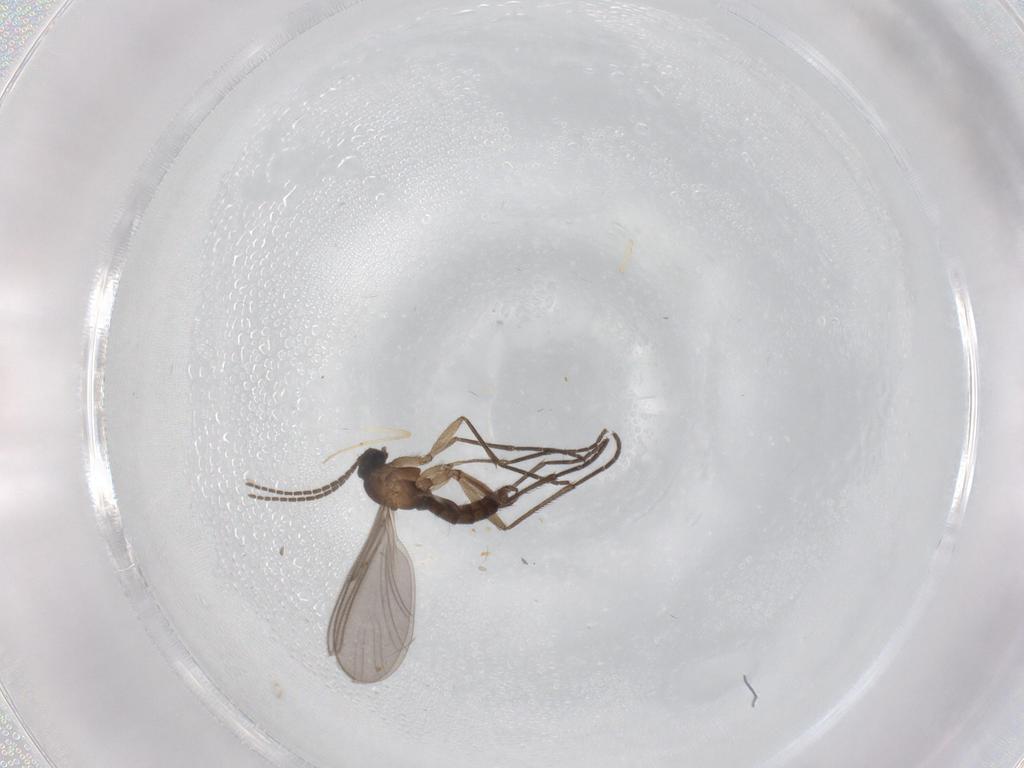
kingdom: Animalia
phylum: Arthropoda
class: Insecta
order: Diptera
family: Sciaridae
